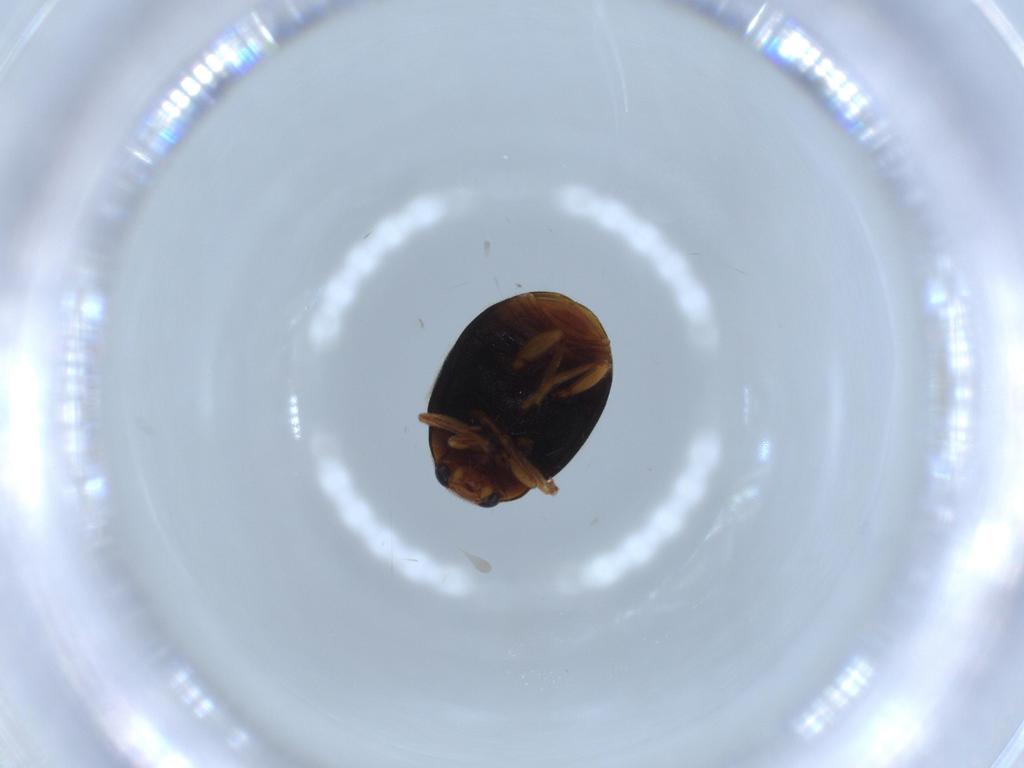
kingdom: Animalia
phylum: Arthropoda
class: Insecta
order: Coleoptera
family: Coccinellidae
